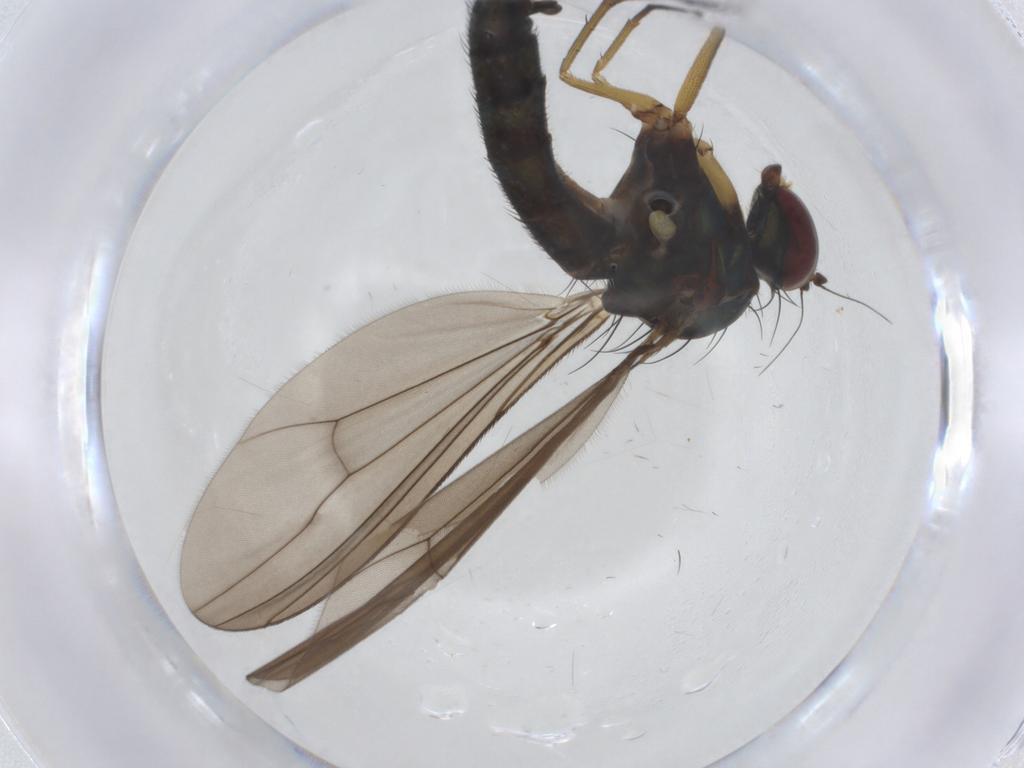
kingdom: Animalia
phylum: Arthropoda
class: Insecta
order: Diptera
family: Dolichopodidae
